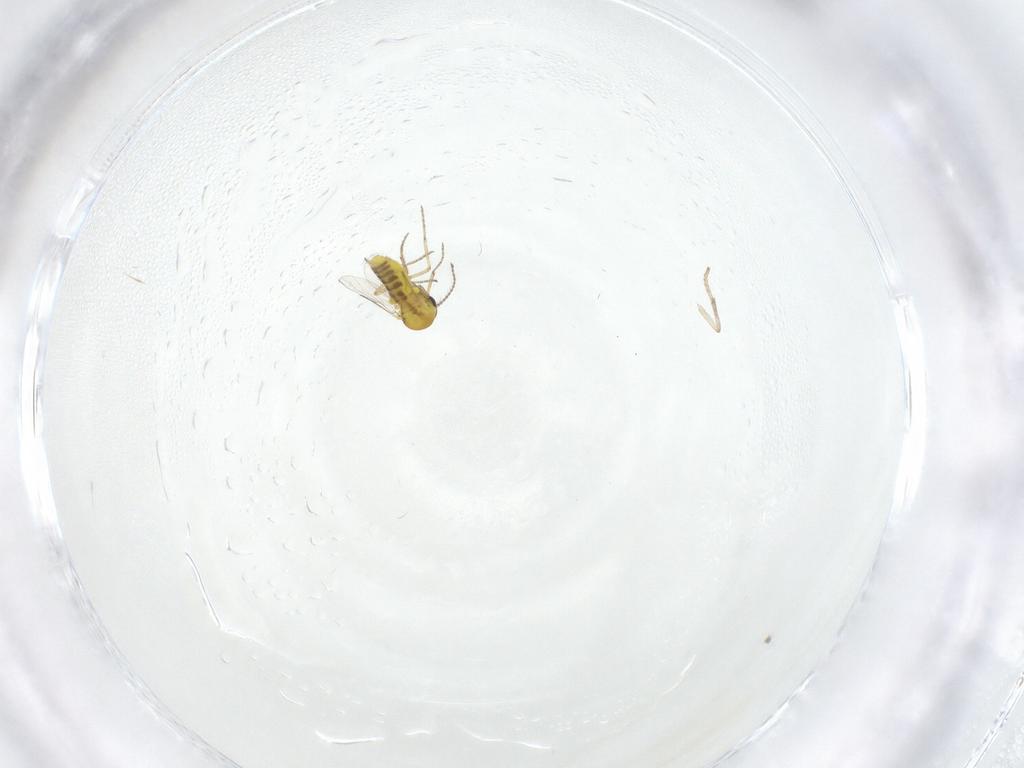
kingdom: Animalia
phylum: Arthropoda
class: Insecta
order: Diptera
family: Ceratopogonidae
